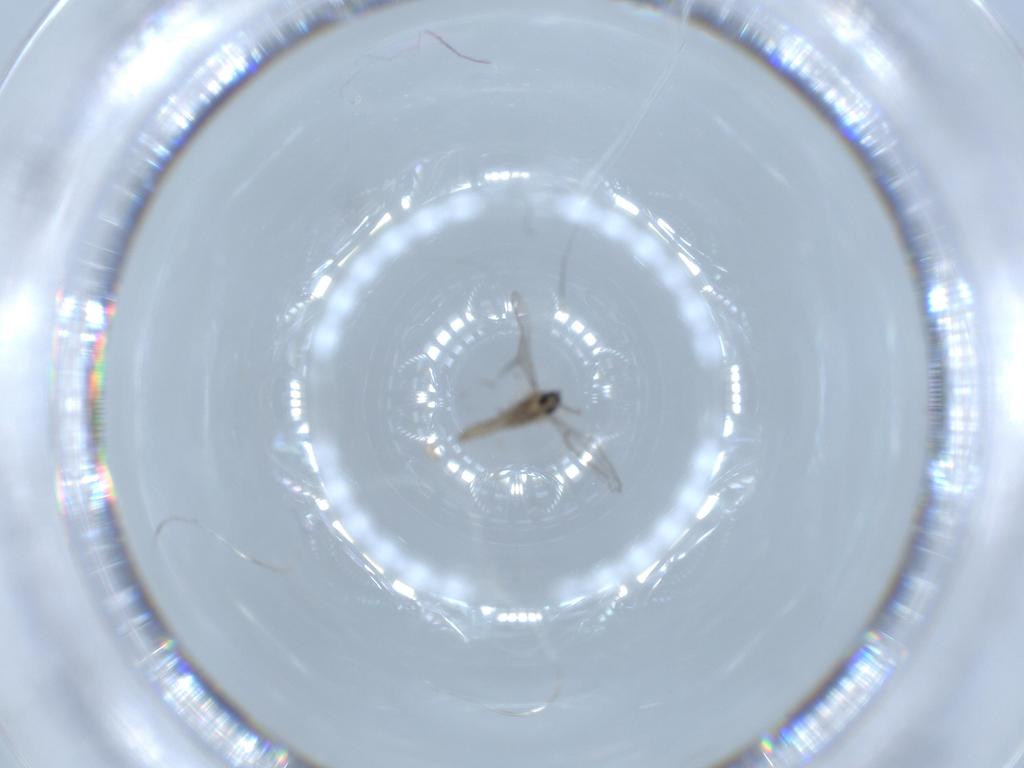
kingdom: Animalia
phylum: Arthropoda
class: Insecta
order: Diptera
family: Cecidomyiidae
